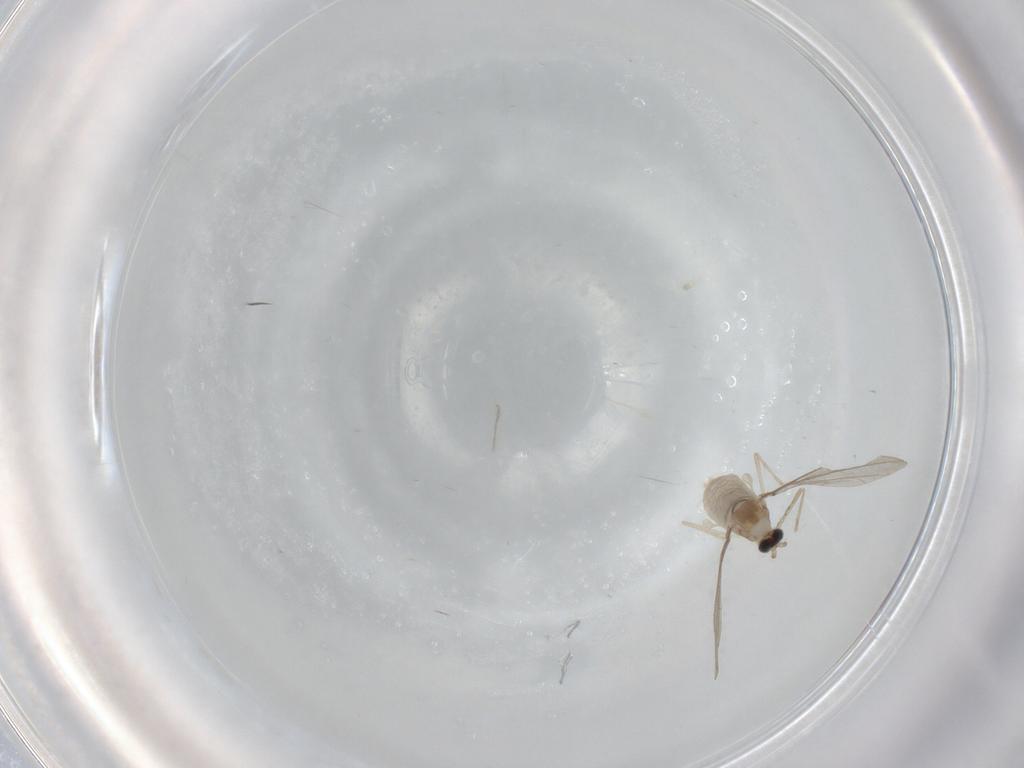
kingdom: Animalia
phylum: Arthropoda
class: Insecta
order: Diptera
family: Cecidomyiidae
